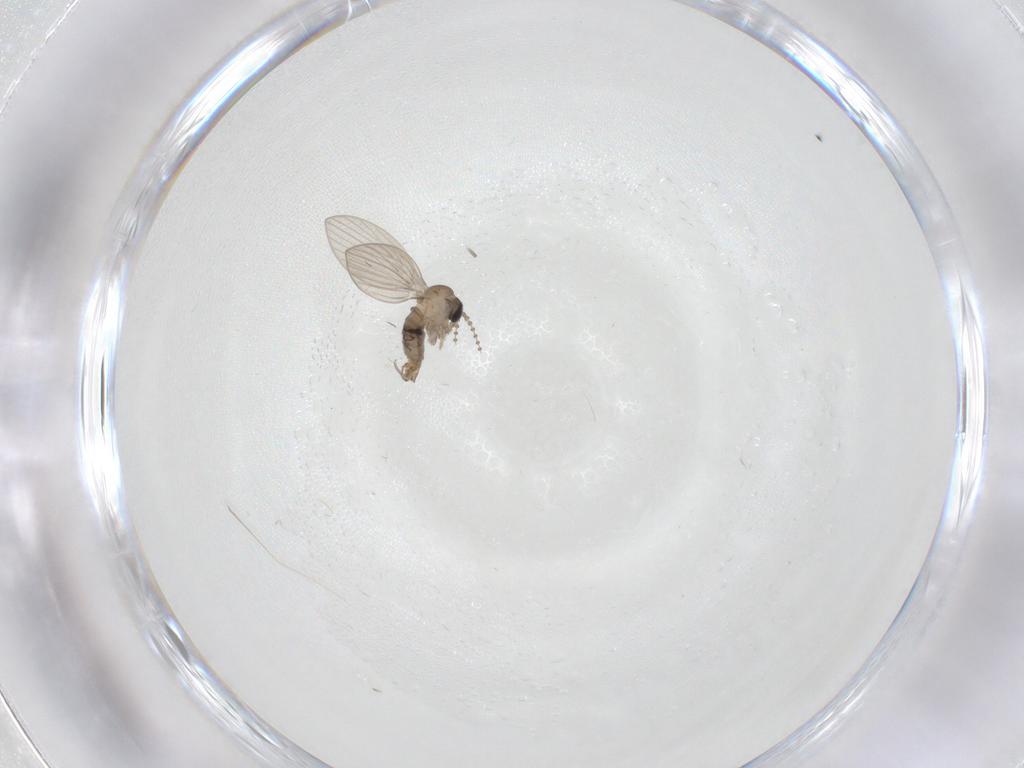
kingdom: Animalia
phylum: Arthropoda
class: Insecta
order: Diptera
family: Psychodidae
